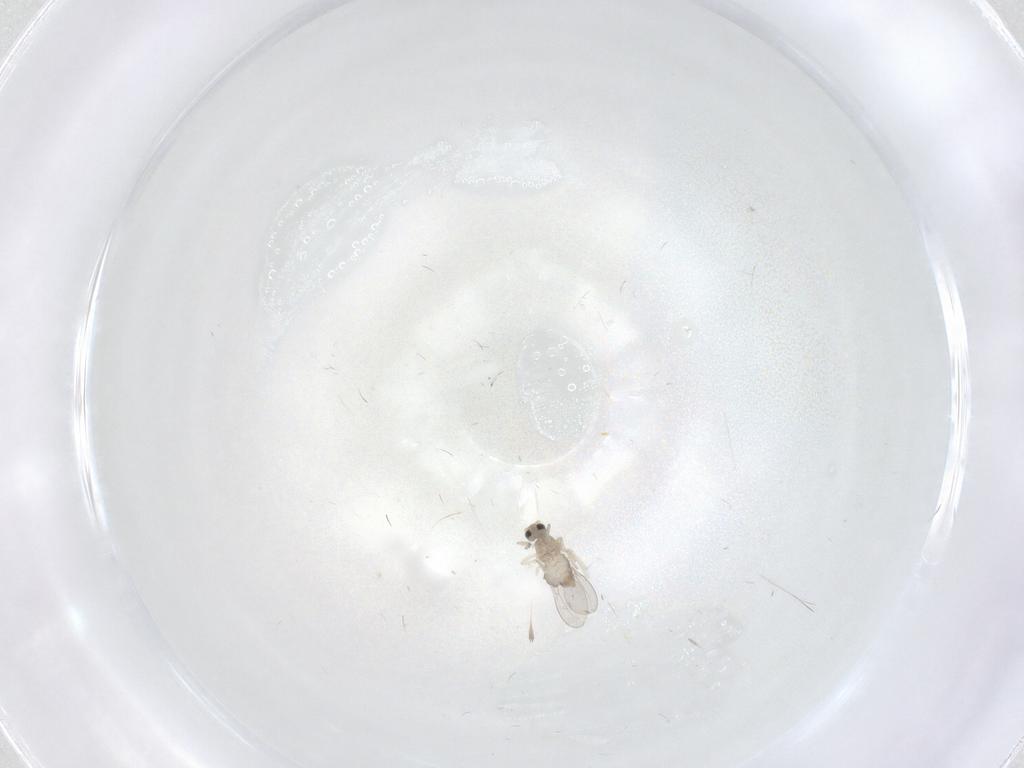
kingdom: Animalia
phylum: Arthropoda
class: Insecta
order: Diptera
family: Cecidomyiidae
